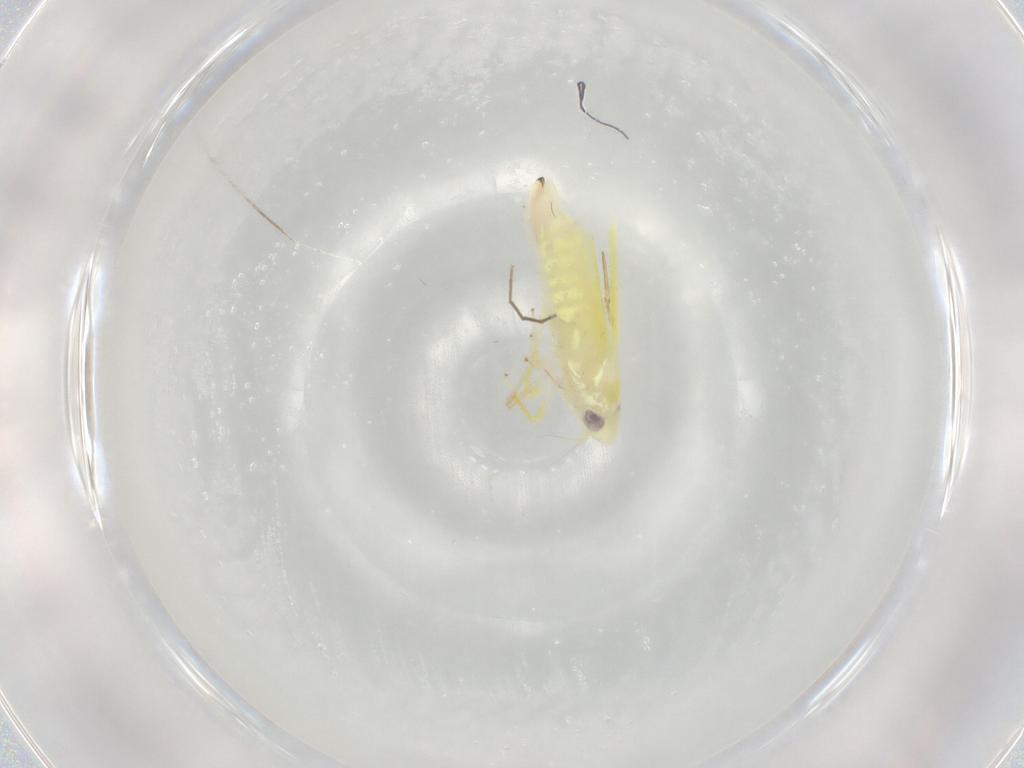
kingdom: Animalia
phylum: Arthropoda
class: Insecta
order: Hemiptera
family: Cicadellidae
